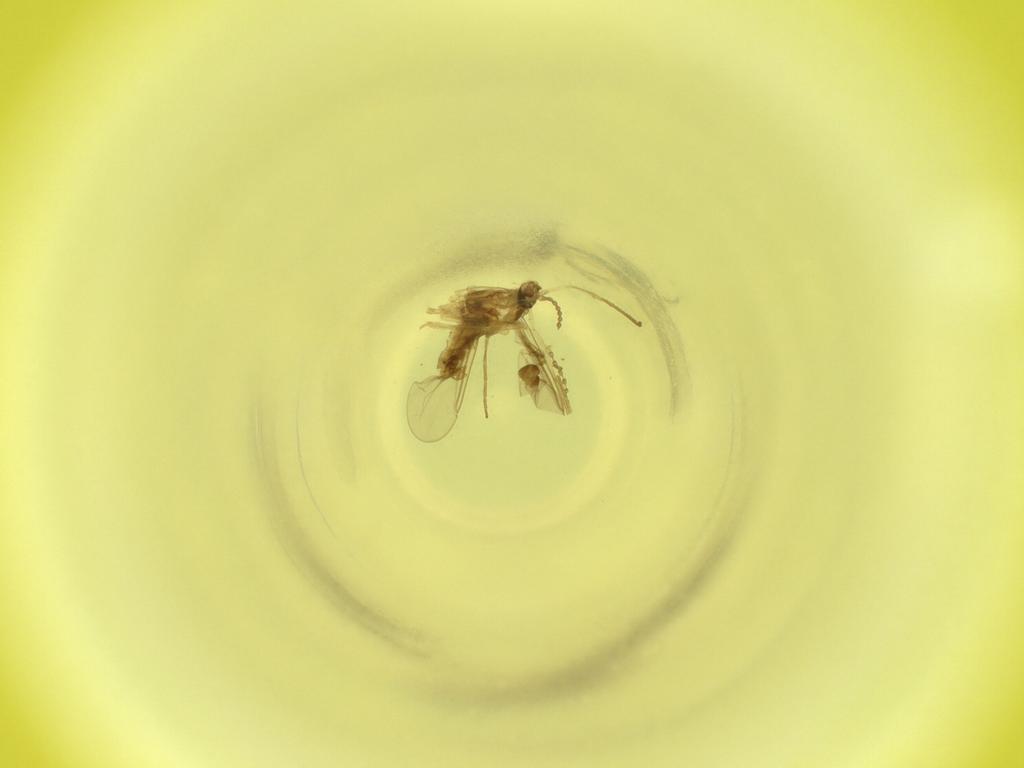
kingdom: Animalia
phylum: Arthropoda
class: Insecta
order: Diptera
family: Cecidomyiidae
